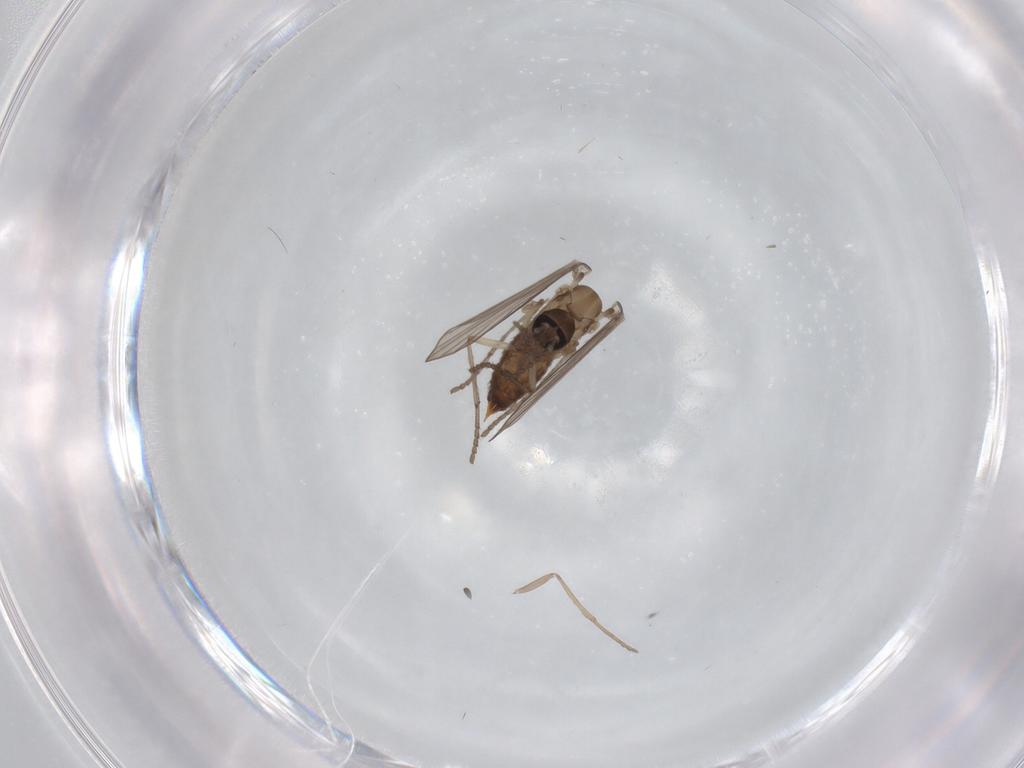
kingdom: Animalia
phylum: Arthropoda
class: Insecta
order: Diptera
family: Psychodidae
